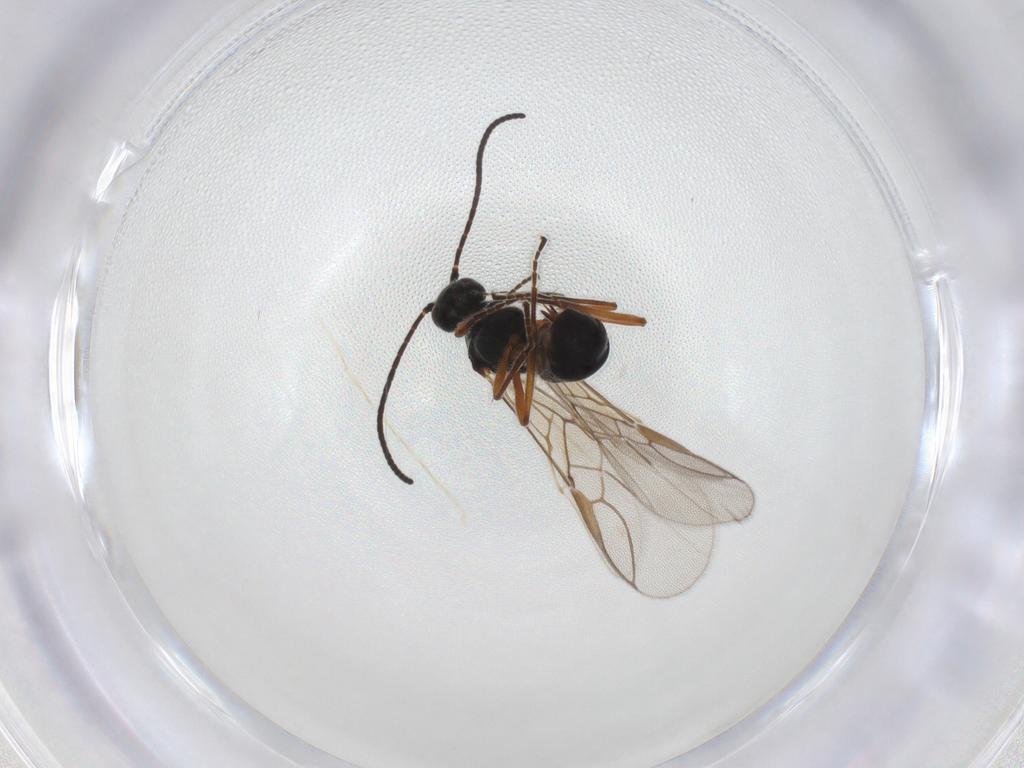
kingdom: Animalia
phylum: Arthropoda
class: Insecta
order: Hymenoptera
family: Braconidae
